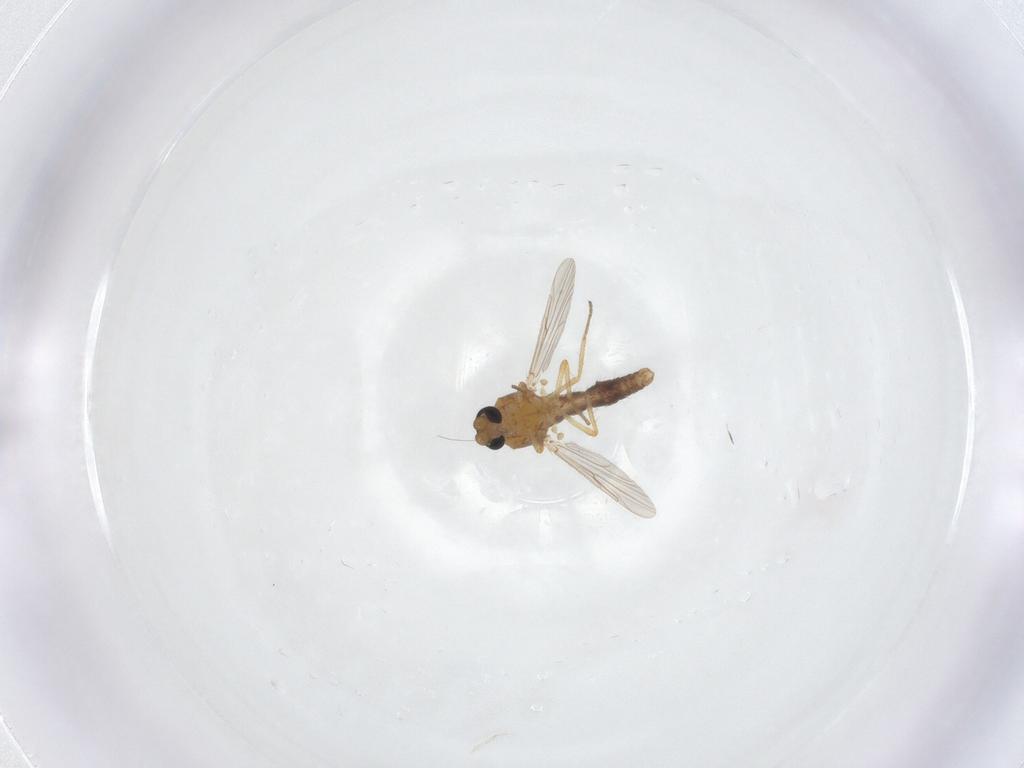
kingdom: Animalia
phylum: Arthropoda
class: Insecta
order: Diptera
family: Ceratopogonidae
